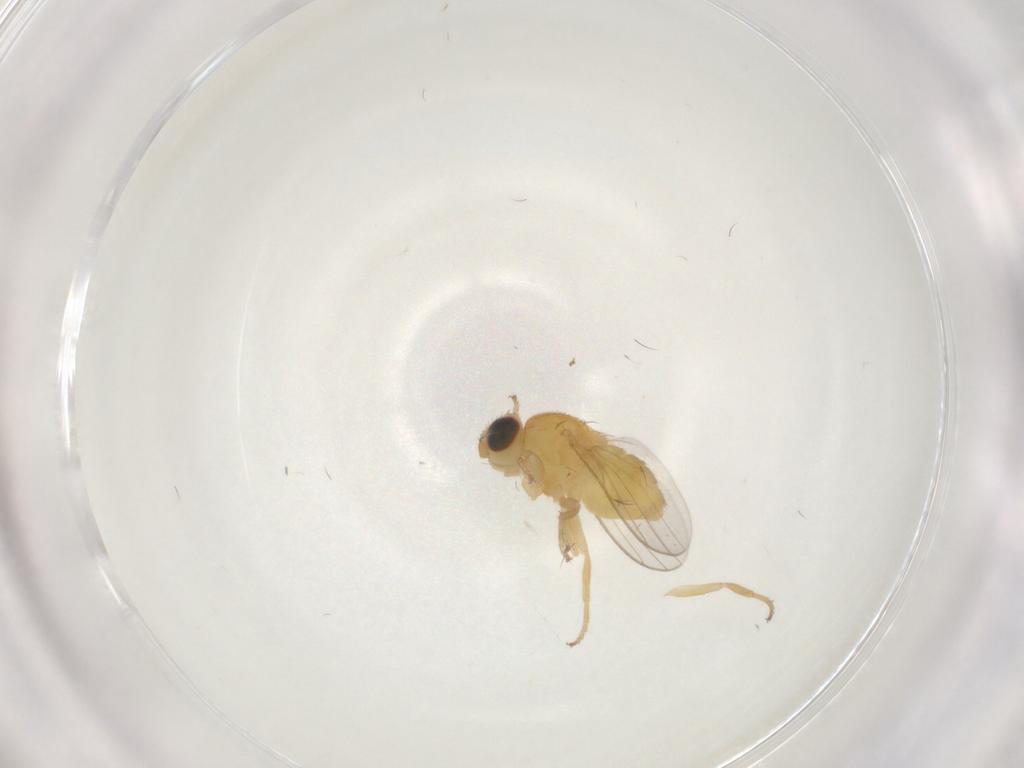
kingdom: Animalia
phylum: Arthropoda
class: Insecta
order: Diptera
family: Chloropidae
